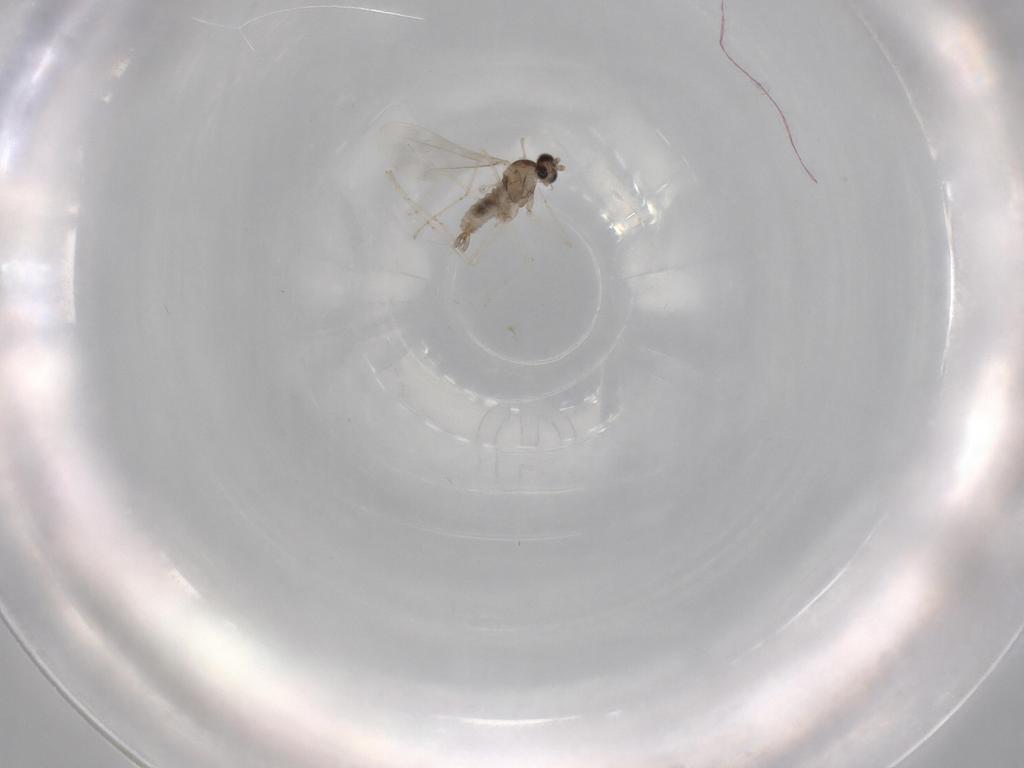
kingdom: Animalia
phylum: Arthropoda
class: Insecta
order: Diptera
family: Cecidomyiidae
